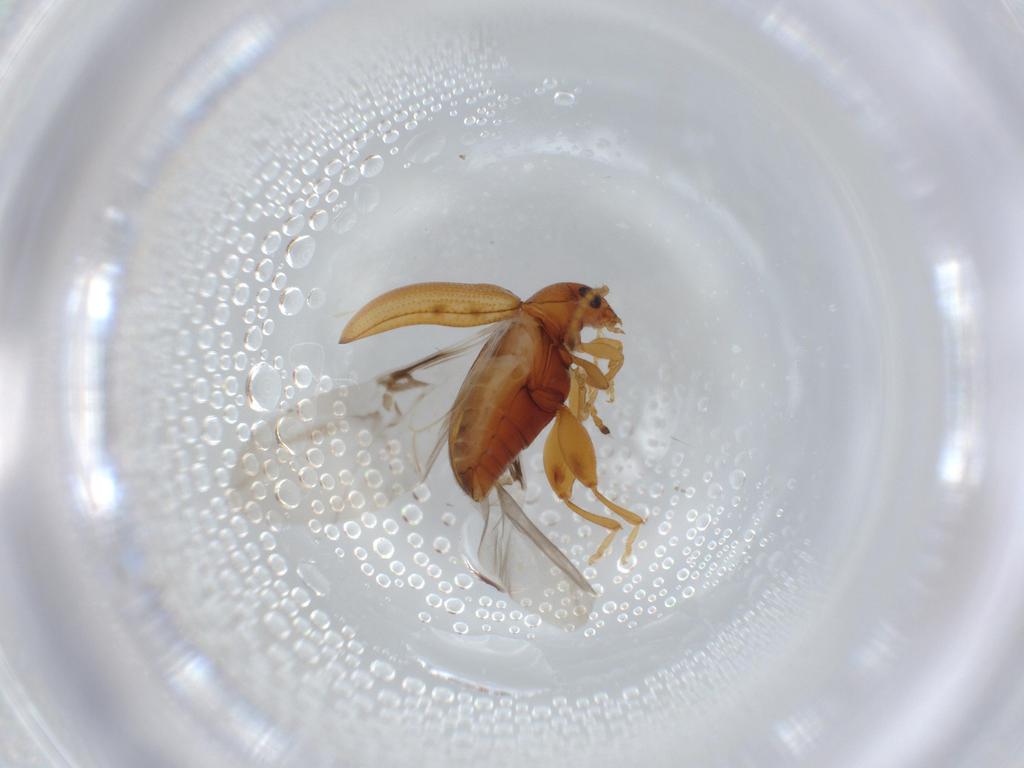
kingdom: Animalia
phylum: Arthropoda
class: Insecta
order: Coleoptera
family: Chrysomelidae
